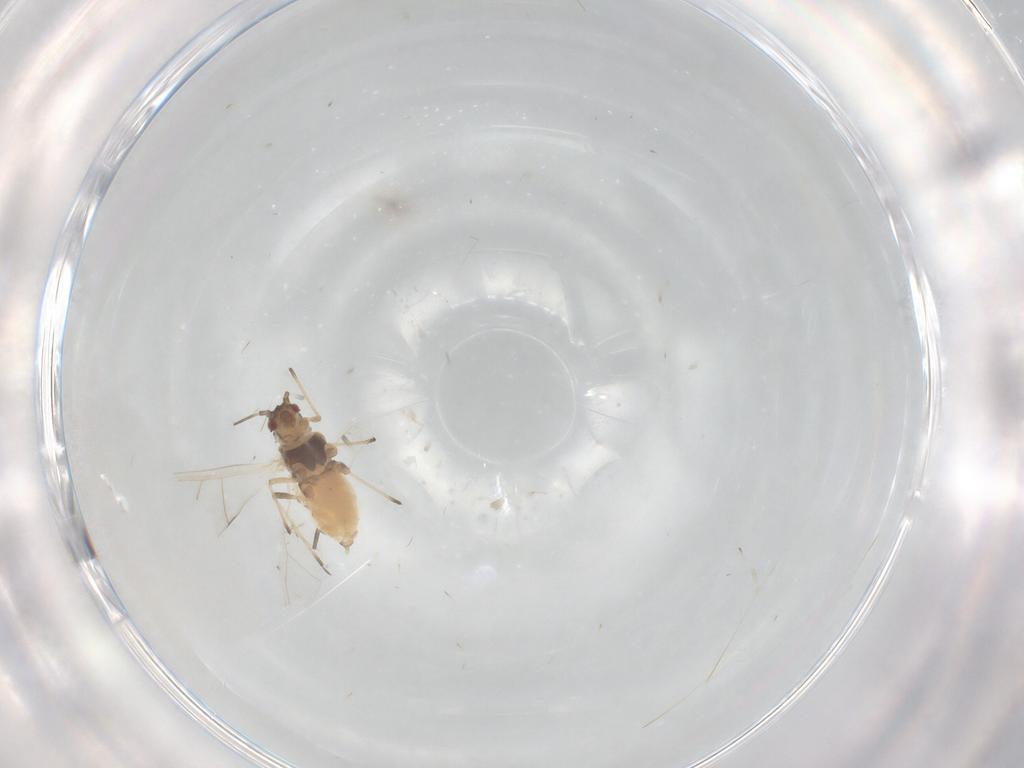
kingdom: Animalia
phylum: Arthropoda
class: Insecta
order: Hemiptera
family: Aphididae
